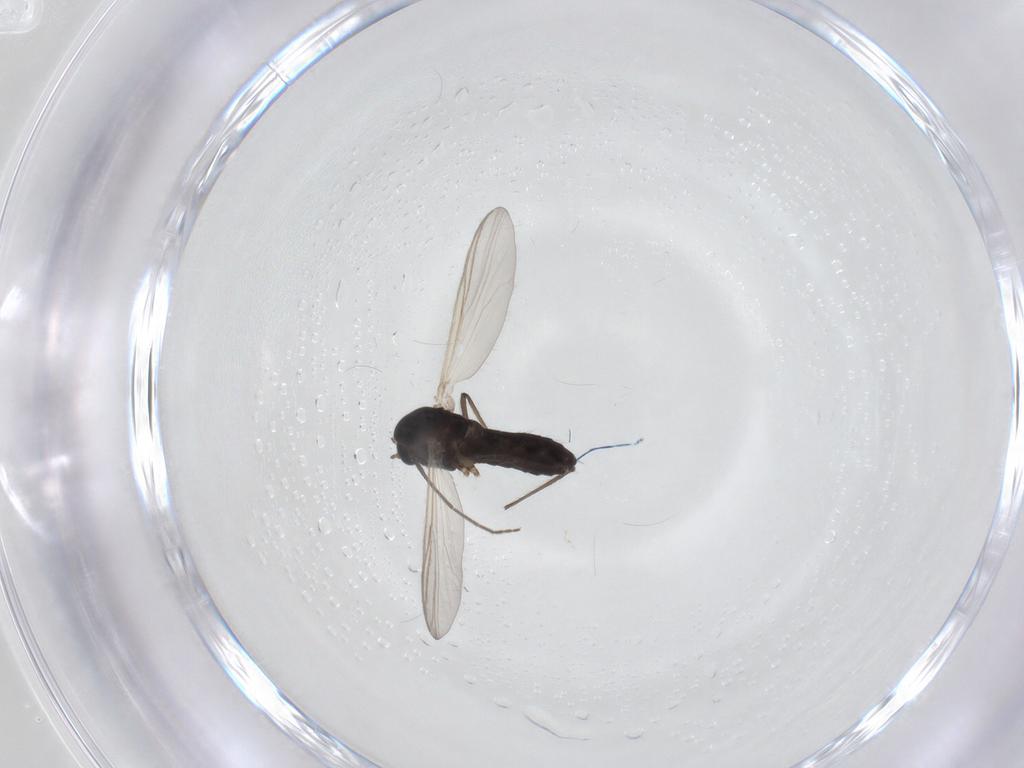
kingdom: Animalia
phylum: Arthropoda
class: Insecta
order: Diptera
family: Chironomidae
